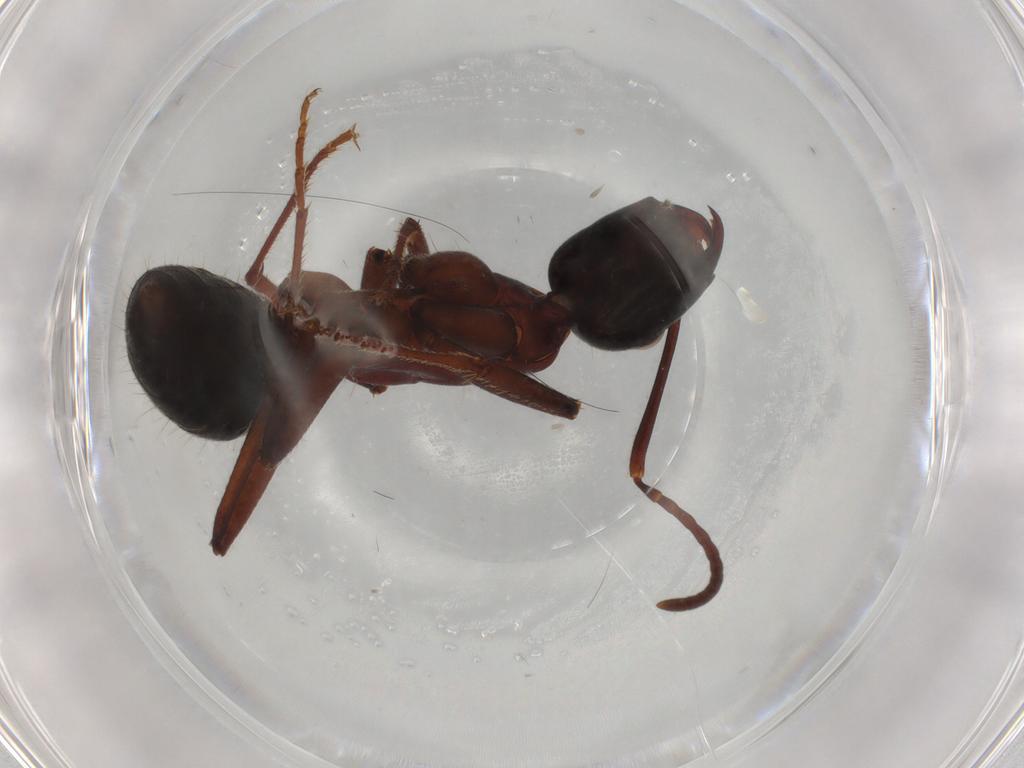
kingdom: Animalia
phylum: Arthropoda
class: Insecta
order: Hymenoptera
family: Formicidae
